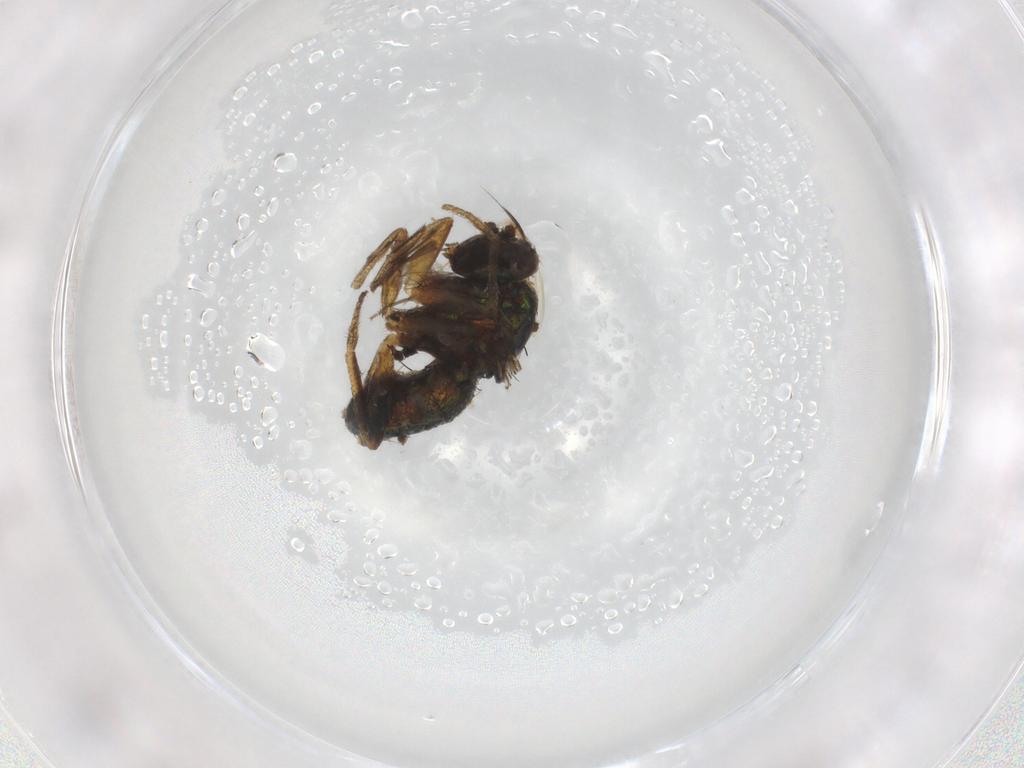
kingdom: Animalia
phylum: Arthropoda
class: Insecta
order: Diptera
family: Dolichopodidae
